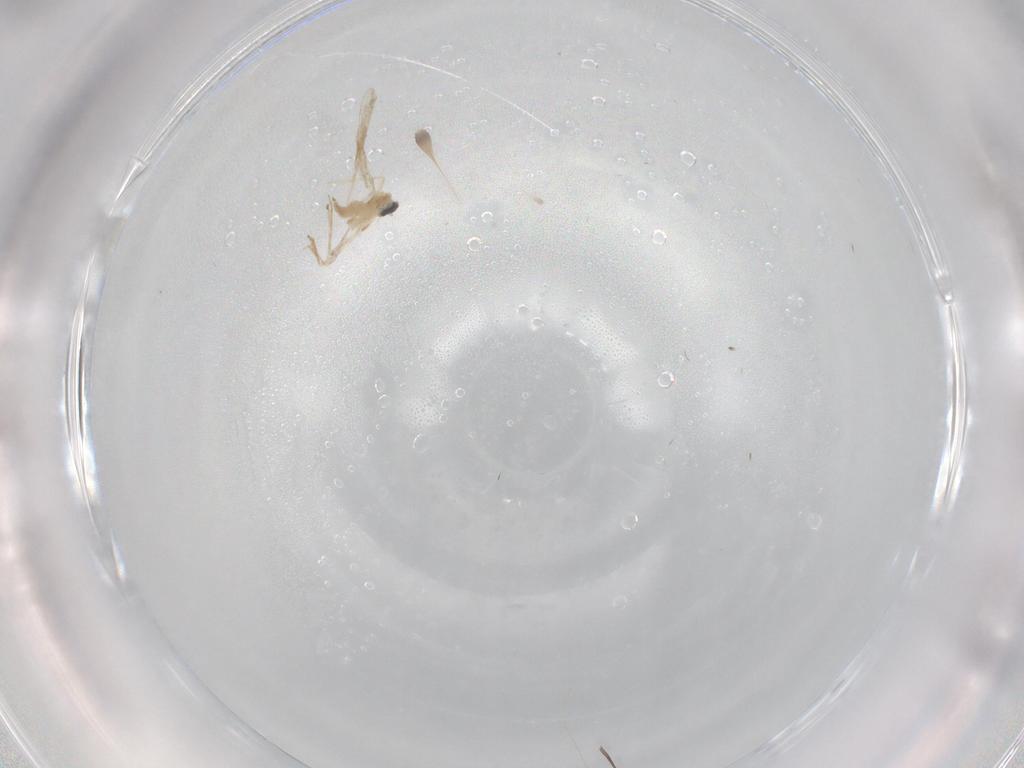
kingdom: Animalia
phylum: Arthropoda
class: Insecta
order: Diptera
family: Cecidomyiidae
